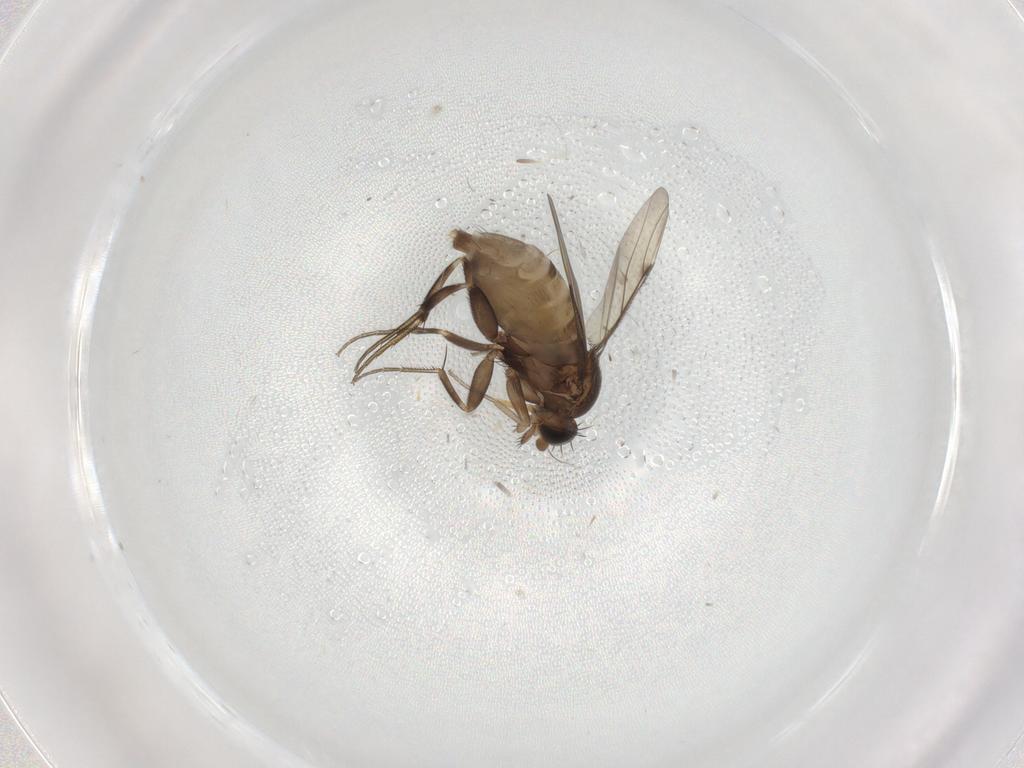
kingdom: Animalia
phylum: Arthropoda
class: Insecta
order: Diptera
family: Phoridae
